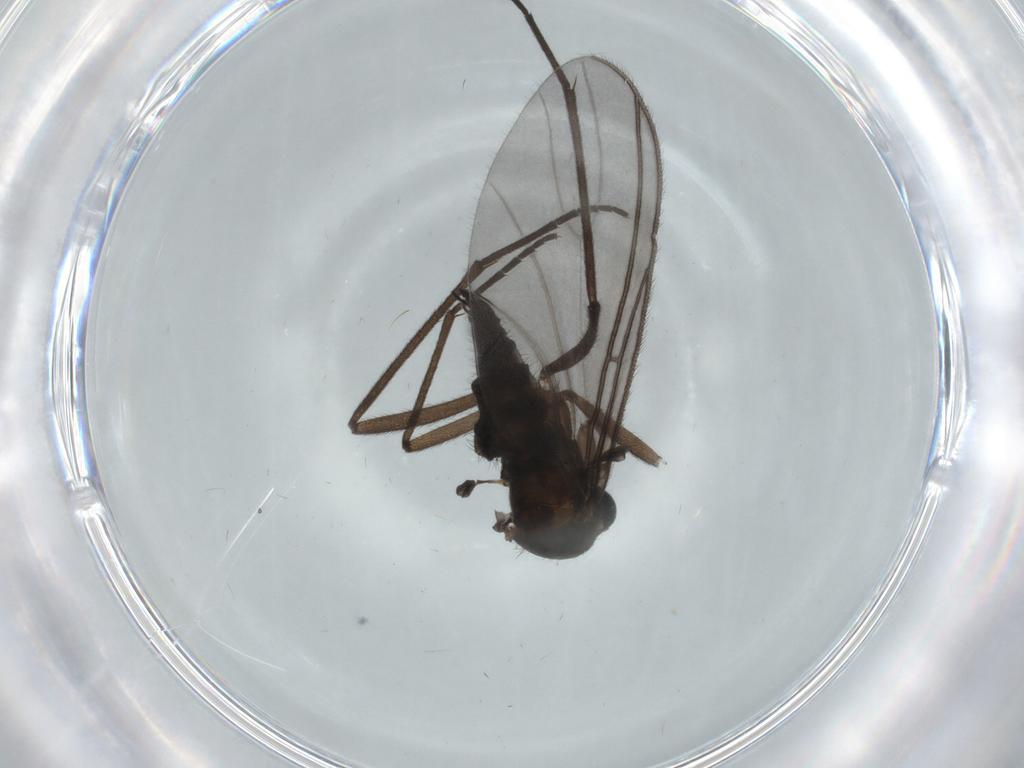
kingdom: Animalia
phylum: Arthropoda
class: Insecta
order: Diptera
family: Sciaridae
